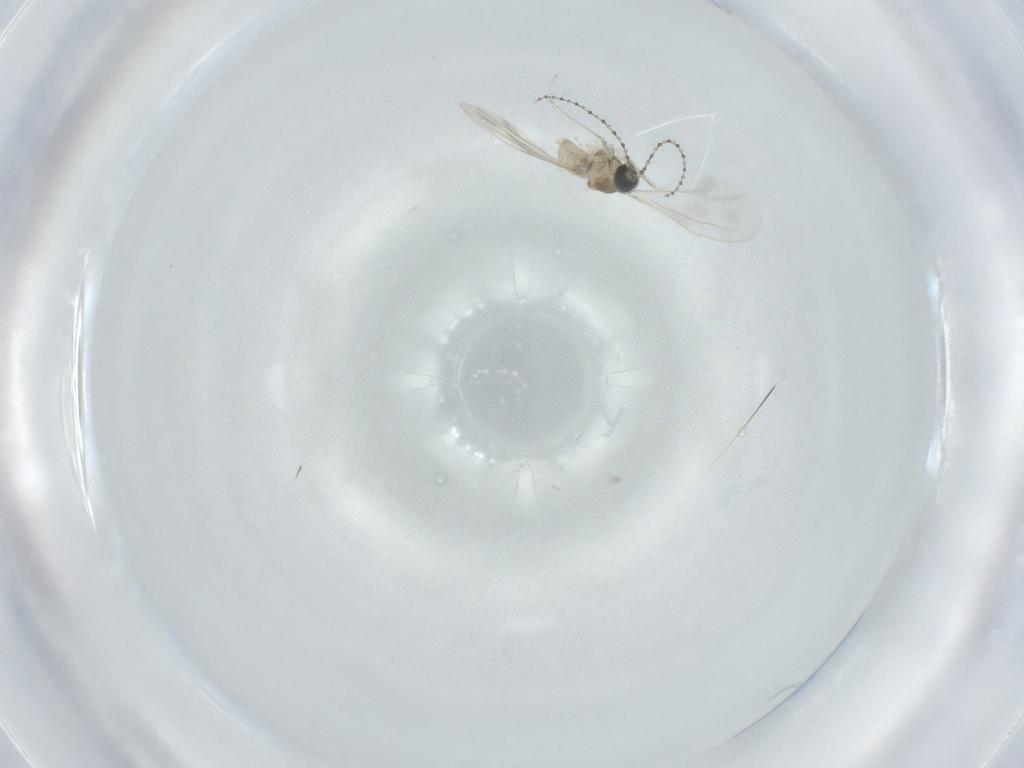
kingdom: Animalia
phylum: Arthropoda
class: Insecta
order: Diptera
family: Cecidomyiidae
